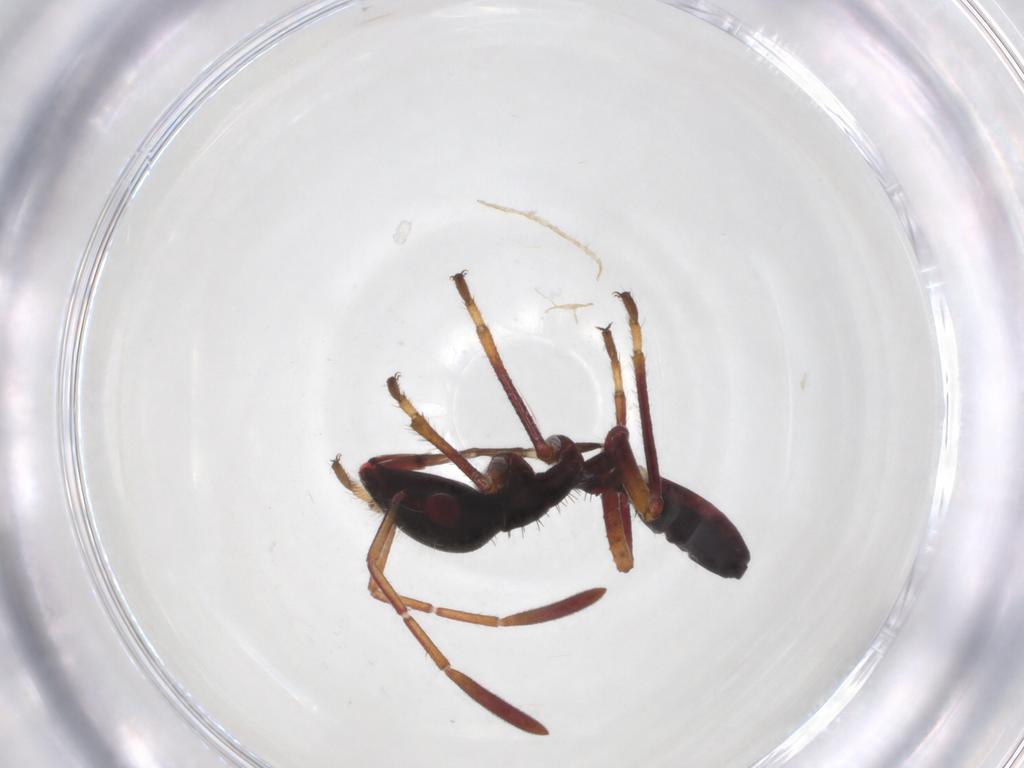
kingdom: Animalia
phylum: Arthropoda
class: Insecta
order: Hemiptera
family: Alydidae
